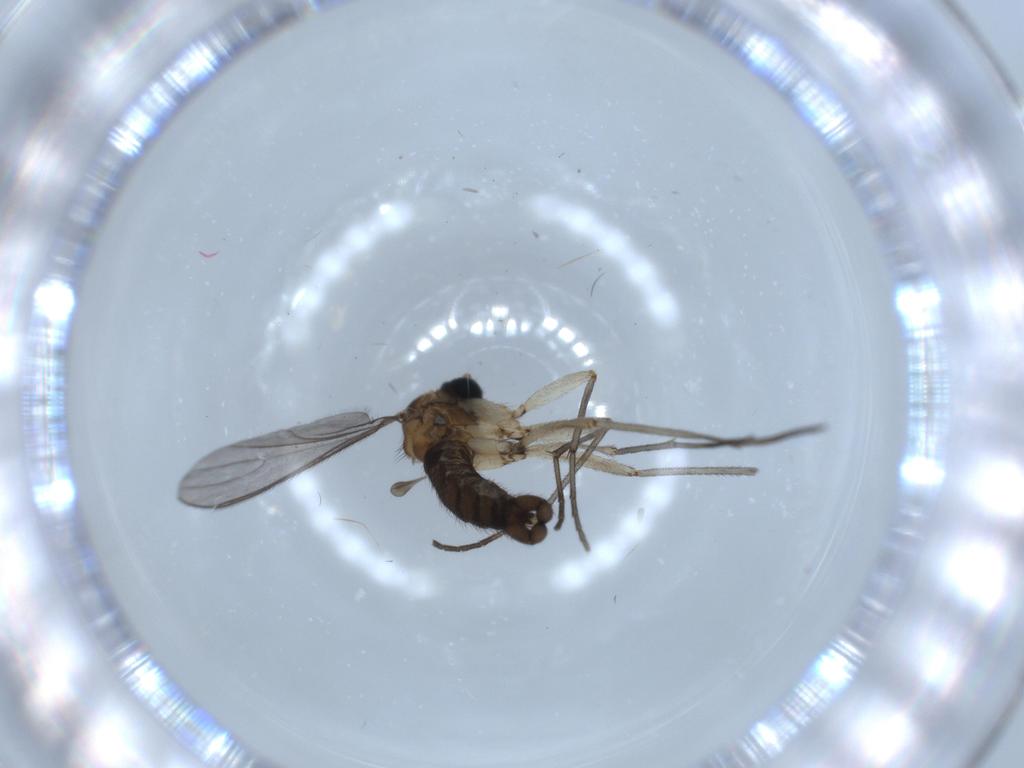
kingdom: Animalia
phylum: Arthropoda
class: Insecta
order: Diptera
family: Sciaridae
